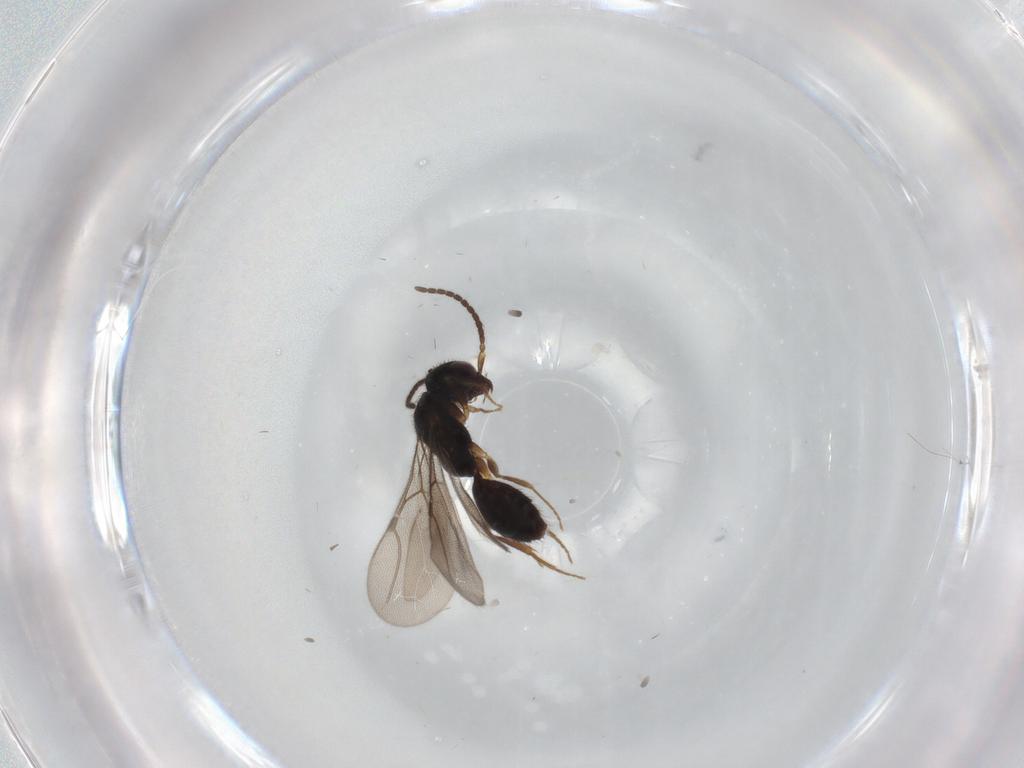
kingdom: Animalia
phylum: Arthropoda
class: Insecta
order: Hymenoptera
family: Formicidae
